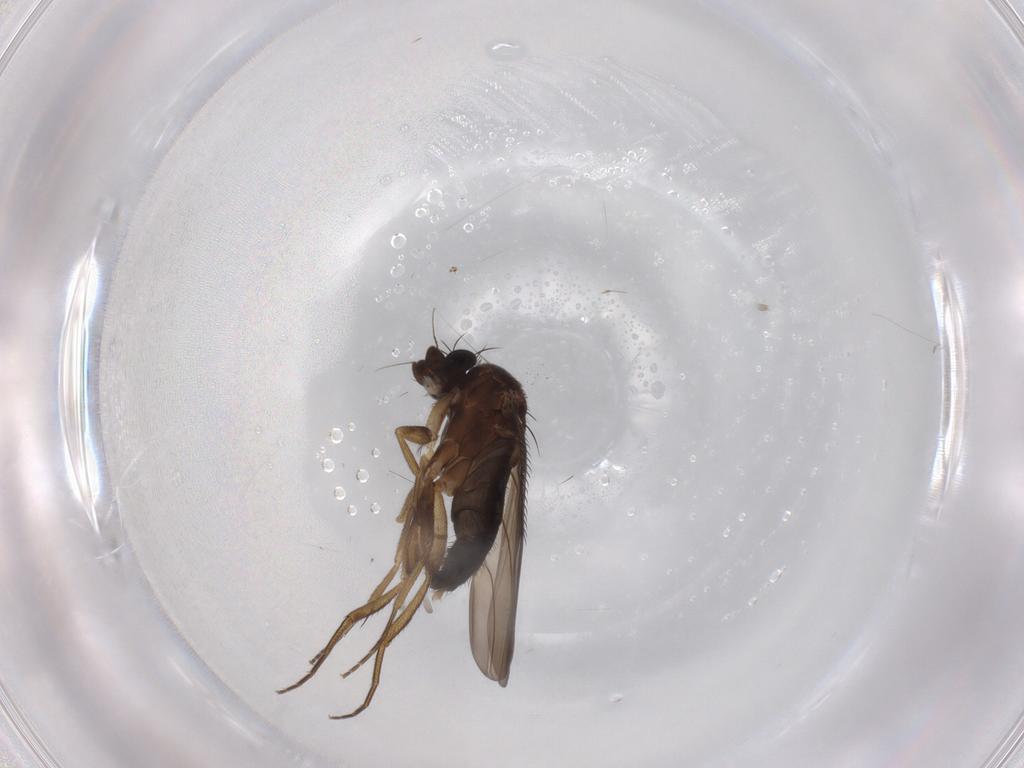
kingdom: Animalia
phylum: Arthropoda
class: Insecta
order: Diptera
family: Phoridae
